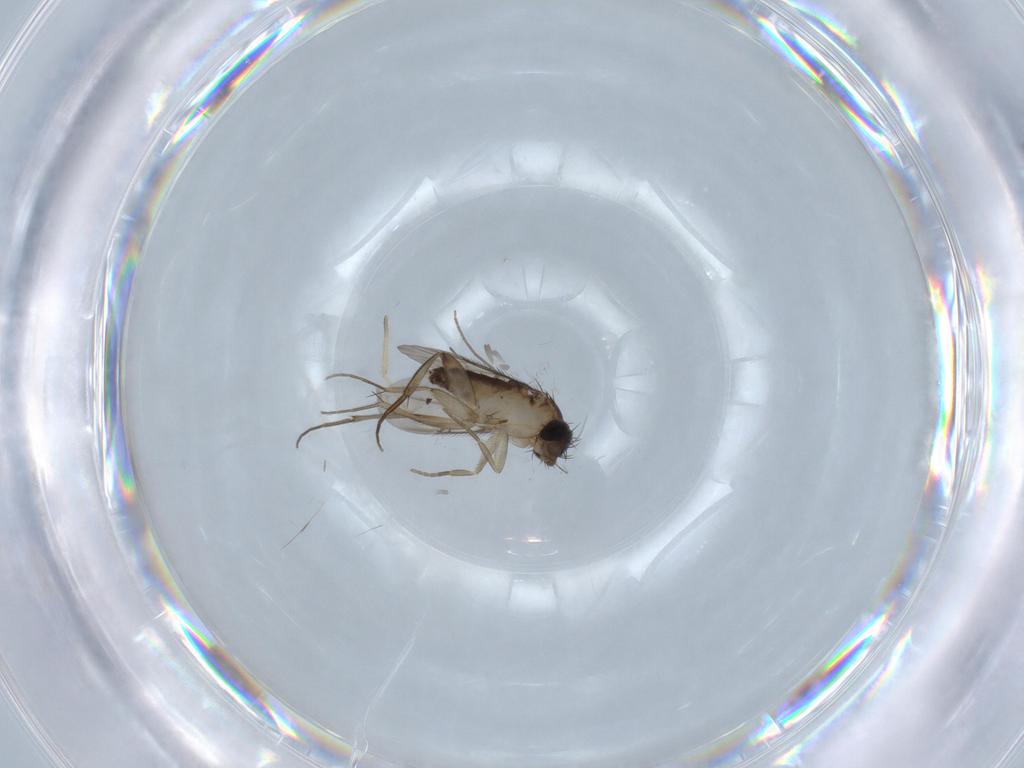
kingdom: Animalia
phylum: Arthropoda
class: Insecta
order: Diptera
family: Phoridae
